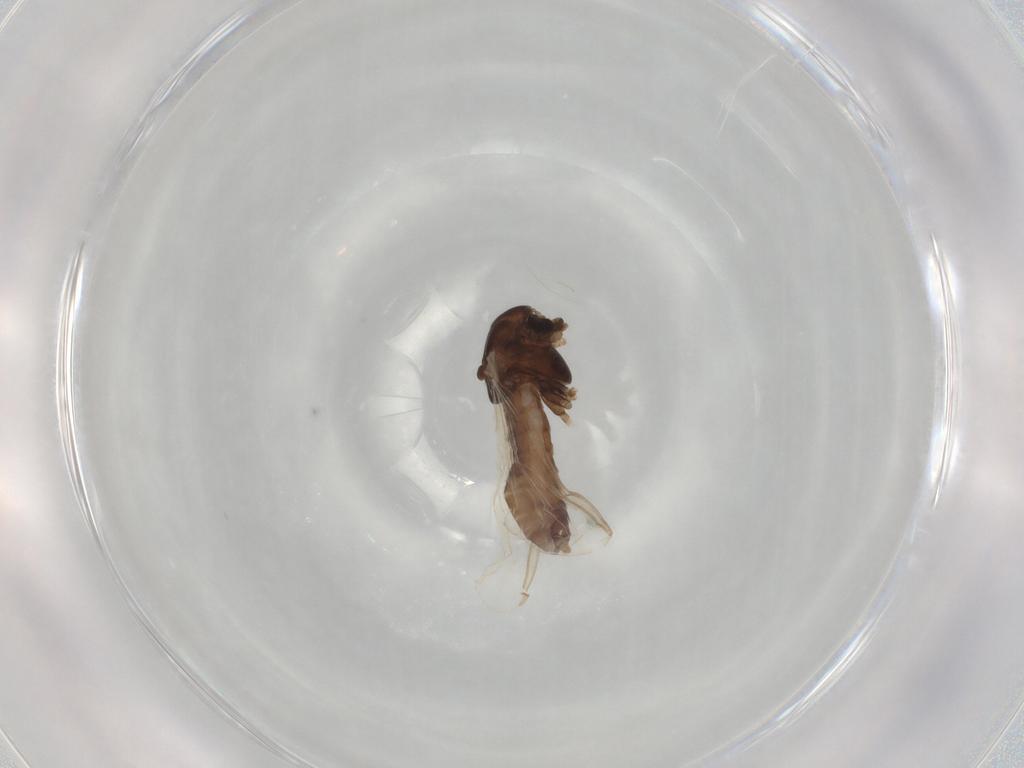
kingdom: Animalia
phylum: Arthropoda
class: Insecta
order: Diptera
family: Chironomidae
